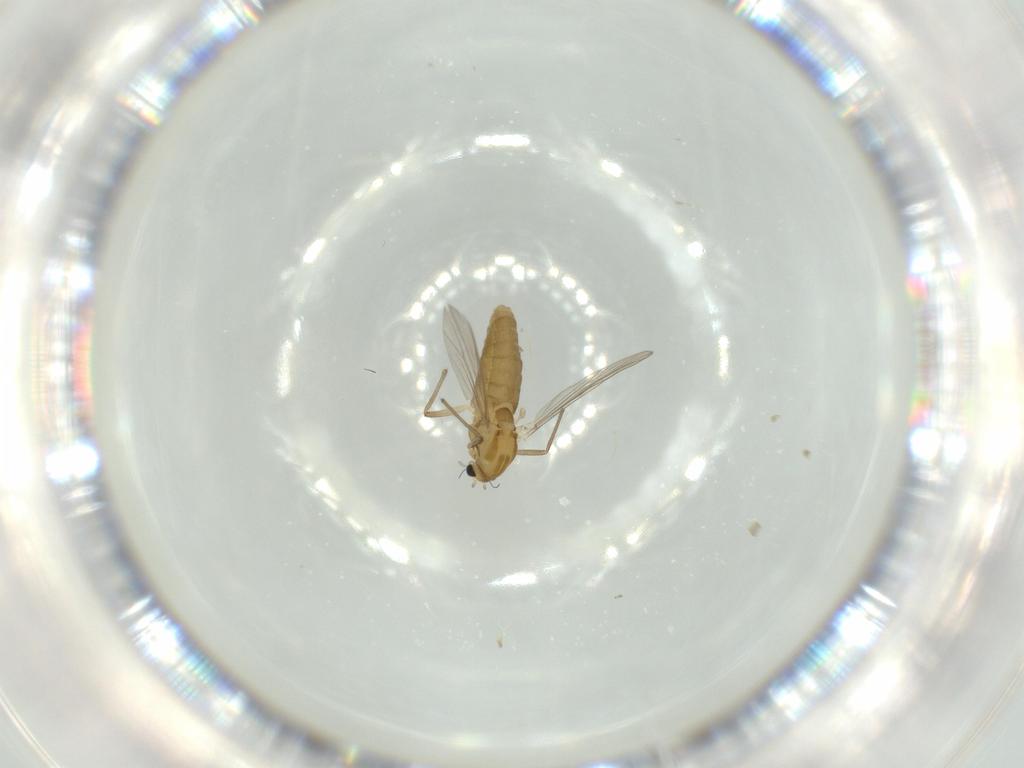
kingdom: Animalia
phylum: Arthropoda
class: Insecta
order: Diptera
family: Chironomidae
